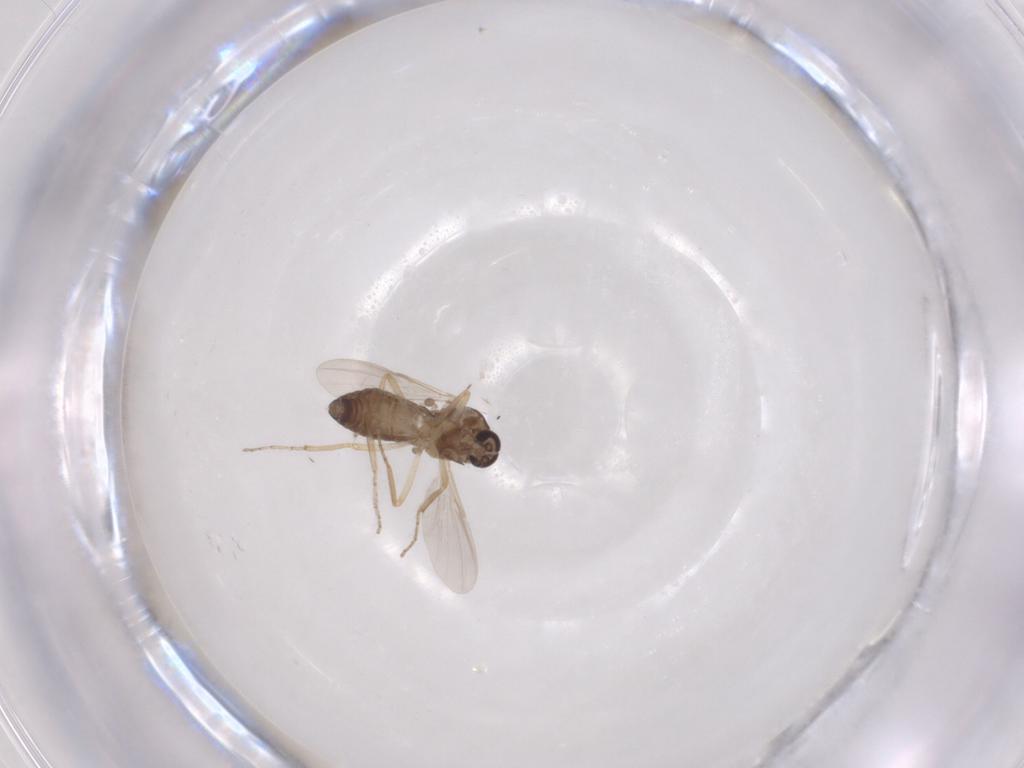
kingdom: Animalia
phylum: Arthropoda
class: Insecta
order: Diptera
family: Ceratopogonidae
